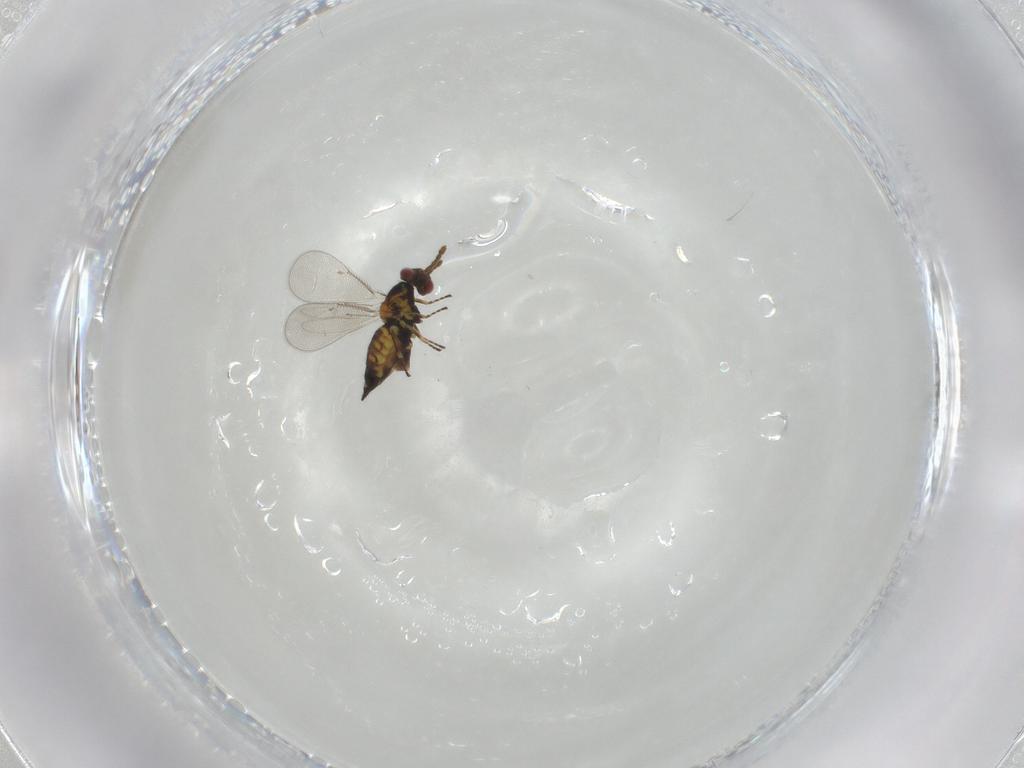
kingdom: Animalia
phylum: Arthropoda
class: Insecta
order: Hymenoptera
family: Eulophidae
